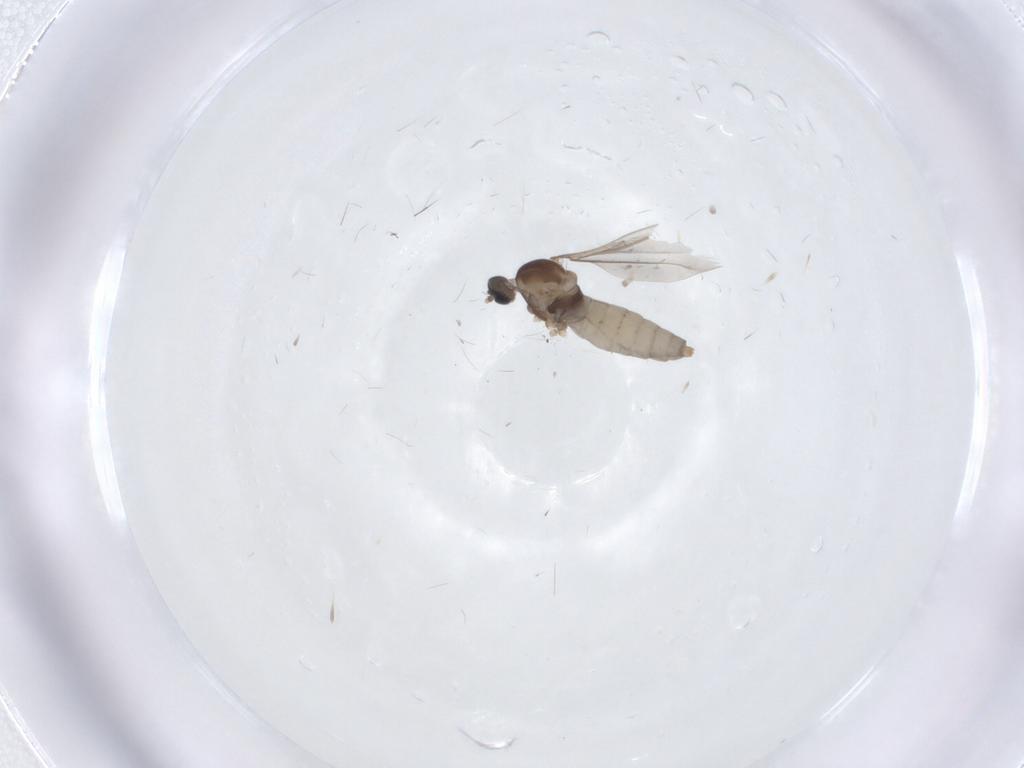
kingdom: Animalia
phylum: Arthropoda
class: Insecta
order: Diptera
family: Cecidomyiidae
